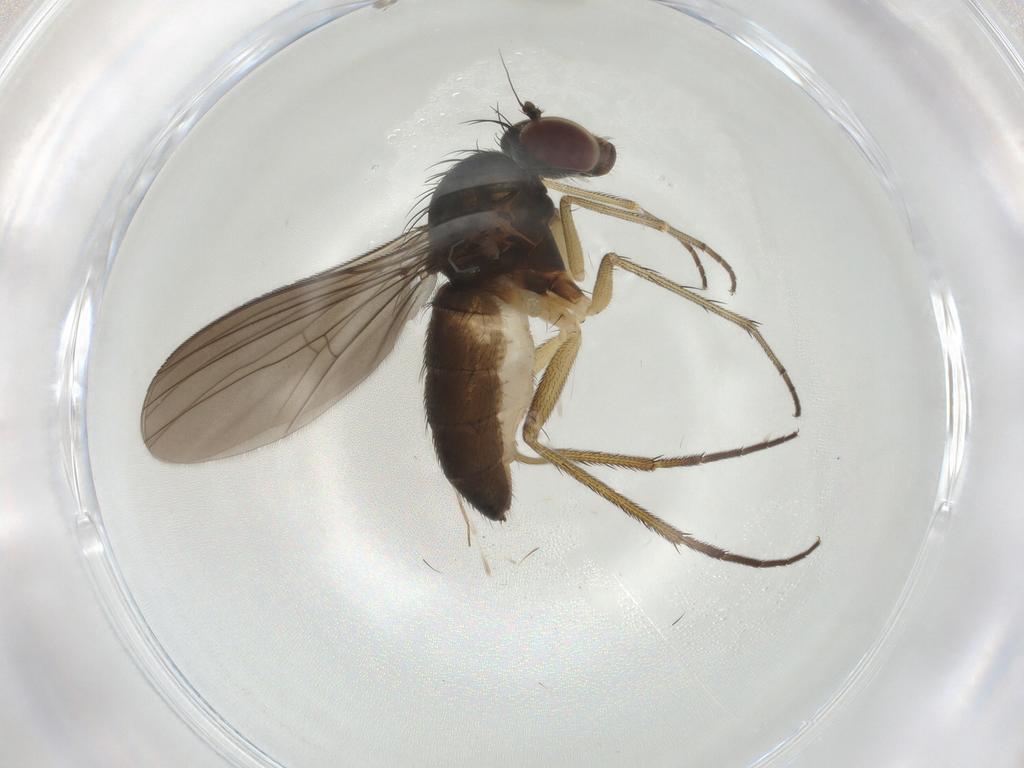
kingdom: Animalia
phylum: Arthropoda
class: Insecta
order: Diptera
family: Dolichopodidae
